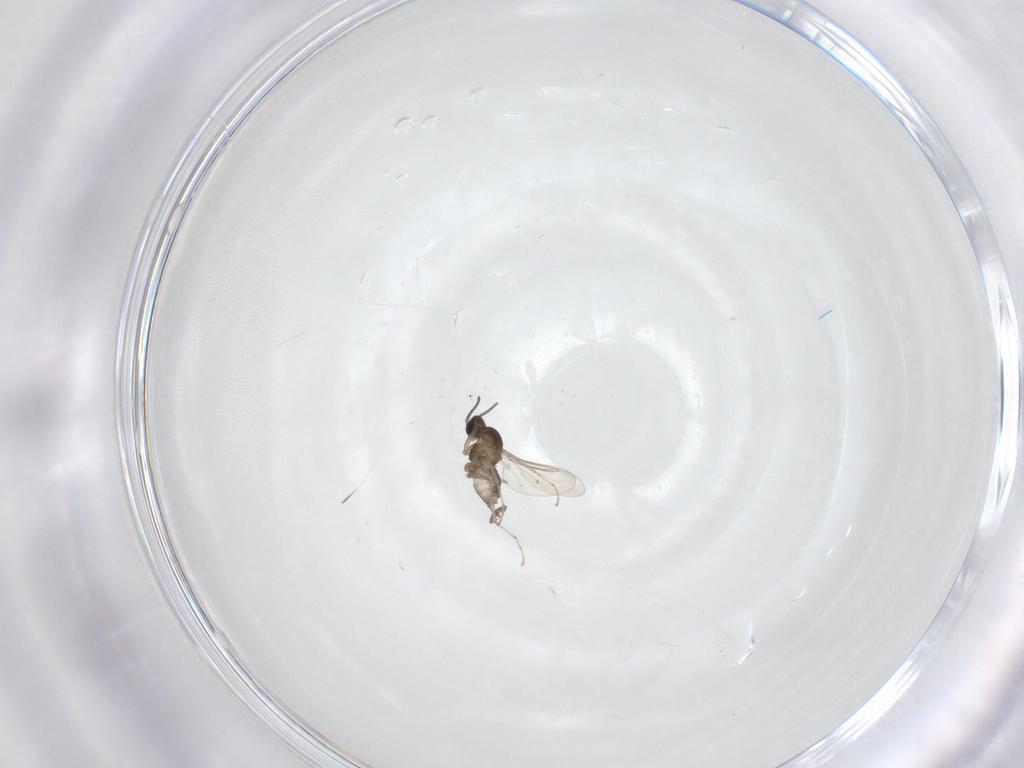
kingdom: Animalia
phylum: Arthropoda
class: Insecta
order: Diptera
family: Cecidomyiidae
